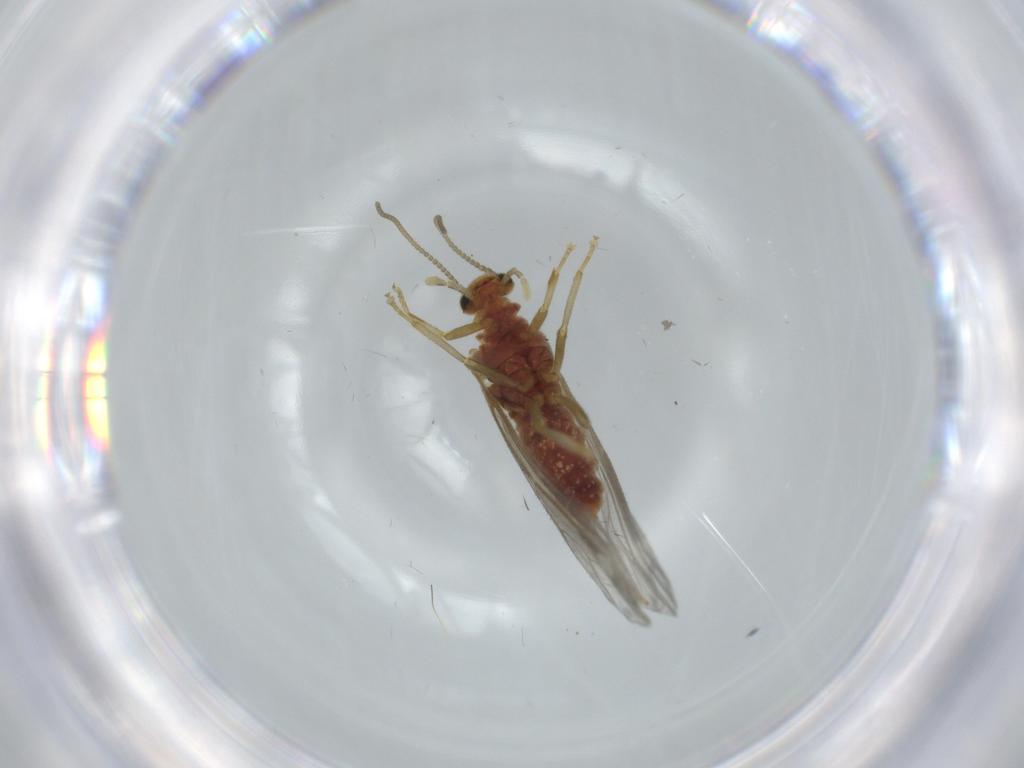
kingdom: Animalia
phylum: Arthropoda
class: Insecta
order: Neuroptera
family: Coniopterygidae
